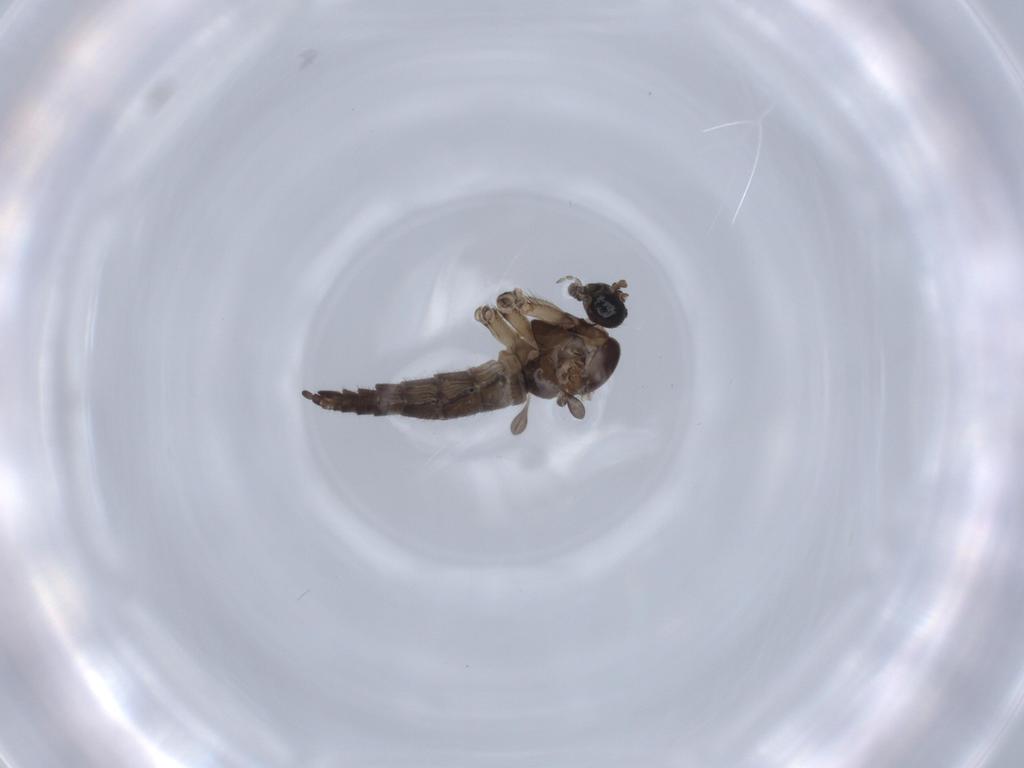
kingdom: Animalia
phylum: Arthropoda
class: Insecta
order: Diptera
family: Sciaridae
